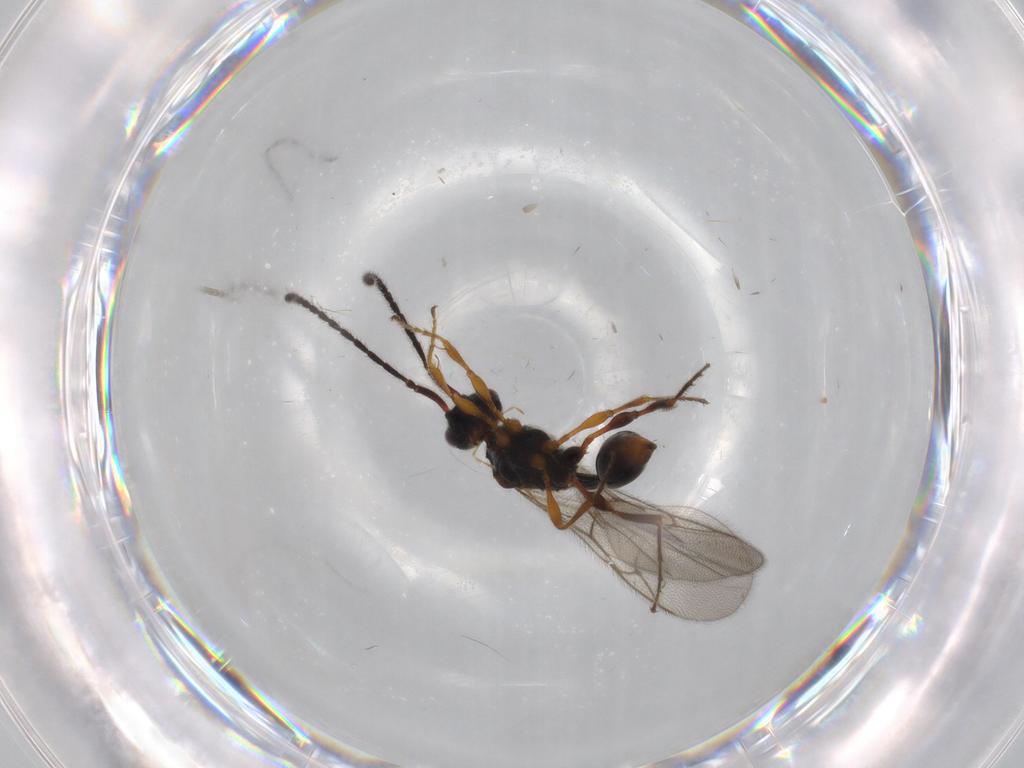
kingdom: Animalia
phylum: Arthropoda
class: Insecta
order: Hymenoptera
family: Diapriidae
